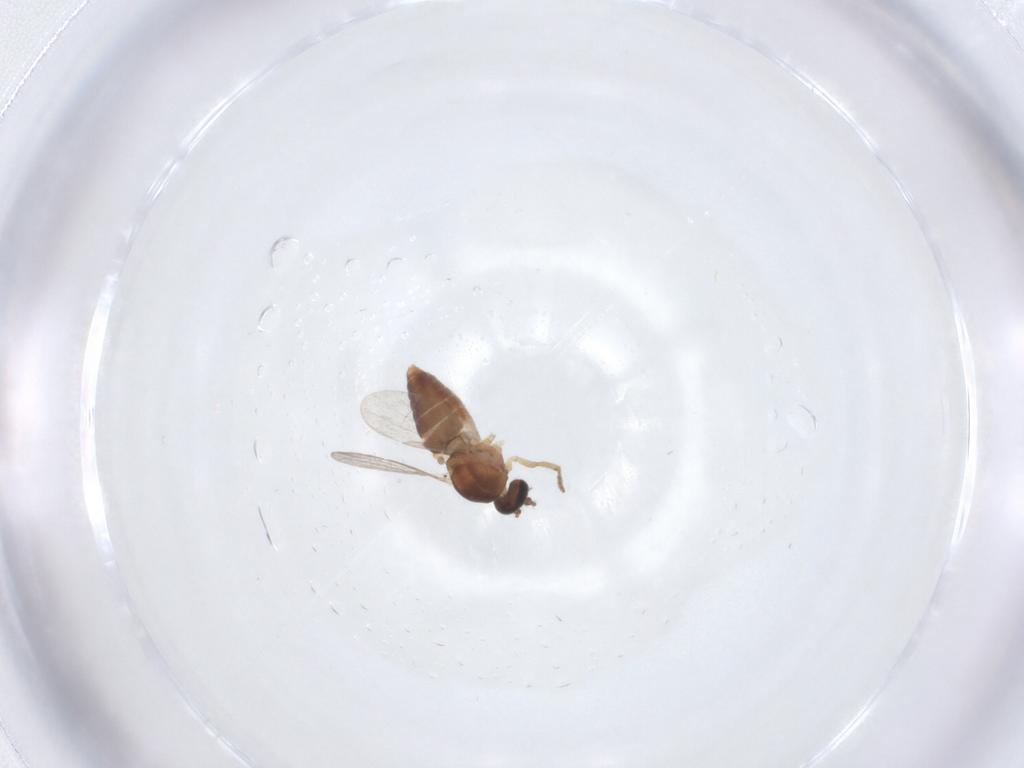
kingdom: Animalia
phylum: Arthropoda
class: Insecta
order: Diptera
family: Ceratopogonidae
